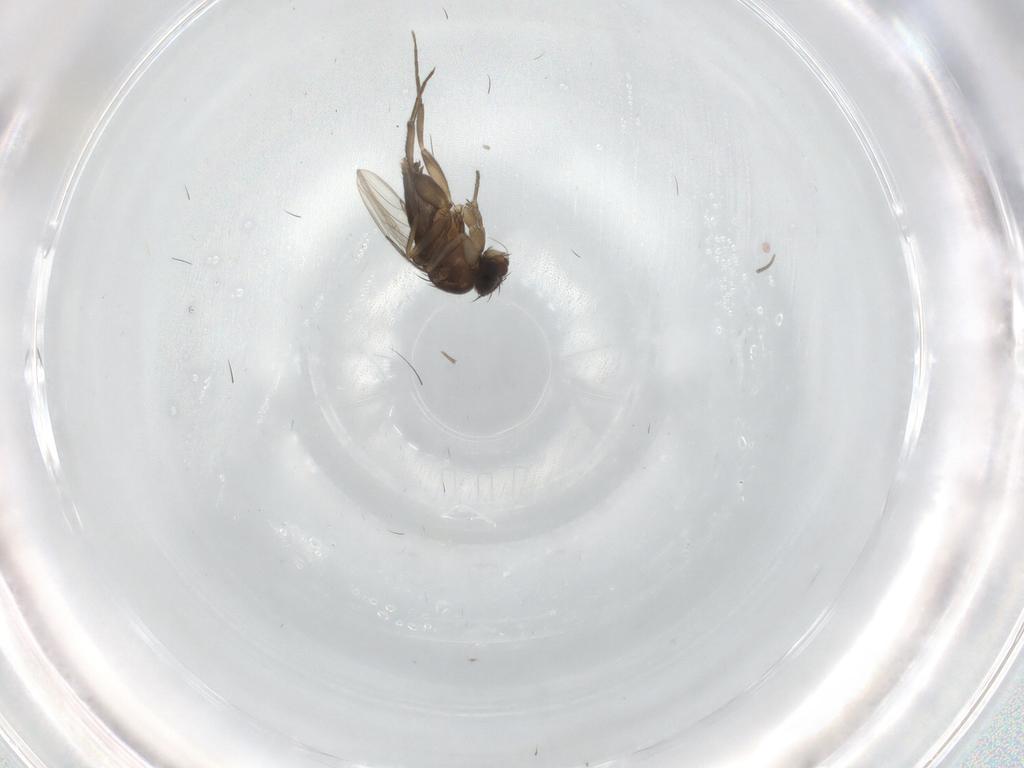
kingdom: Animalia
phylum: Arthropoda
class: Insecta
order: Diptera
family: Phoridae
